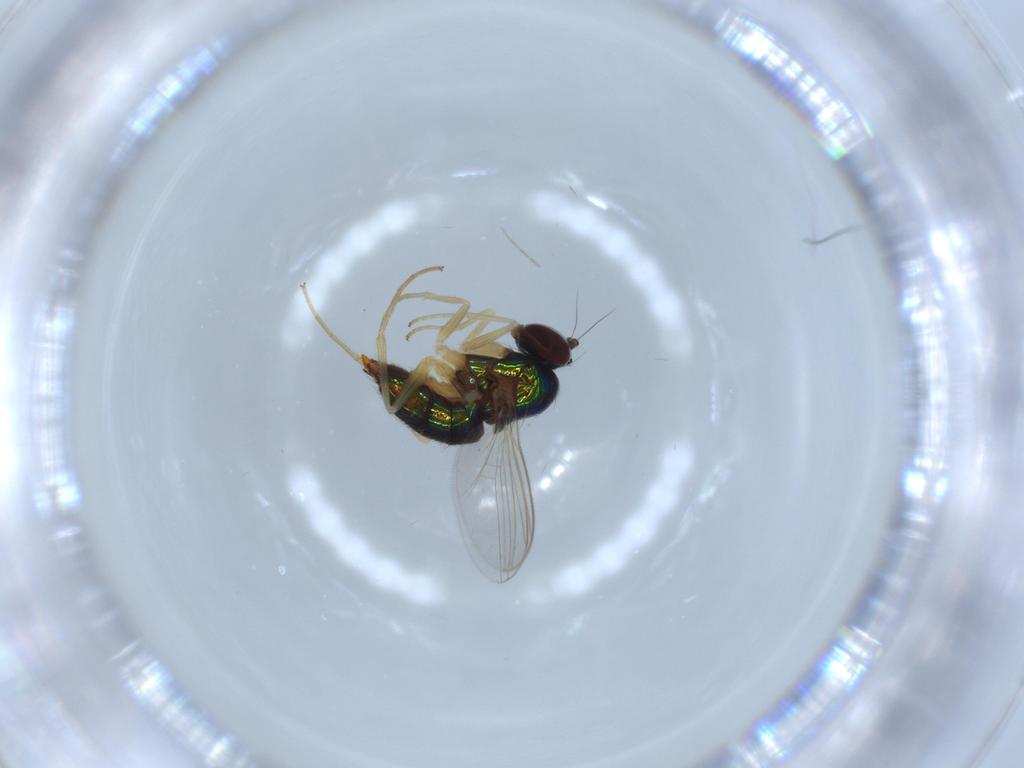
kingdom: Animalia
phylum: Arthropoda
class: Insecta
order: Diptera
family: Dolichopodidae
